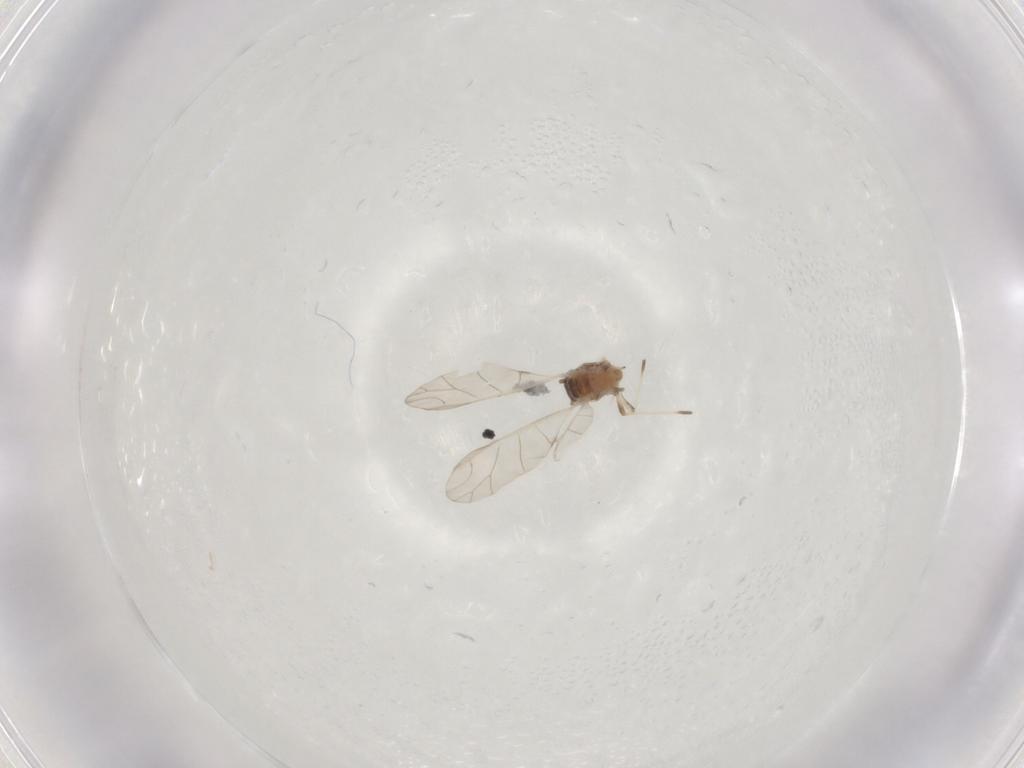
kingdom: Animalia
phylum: Arthropoda
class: Insecta
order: Hemiptera
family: Aphididae
